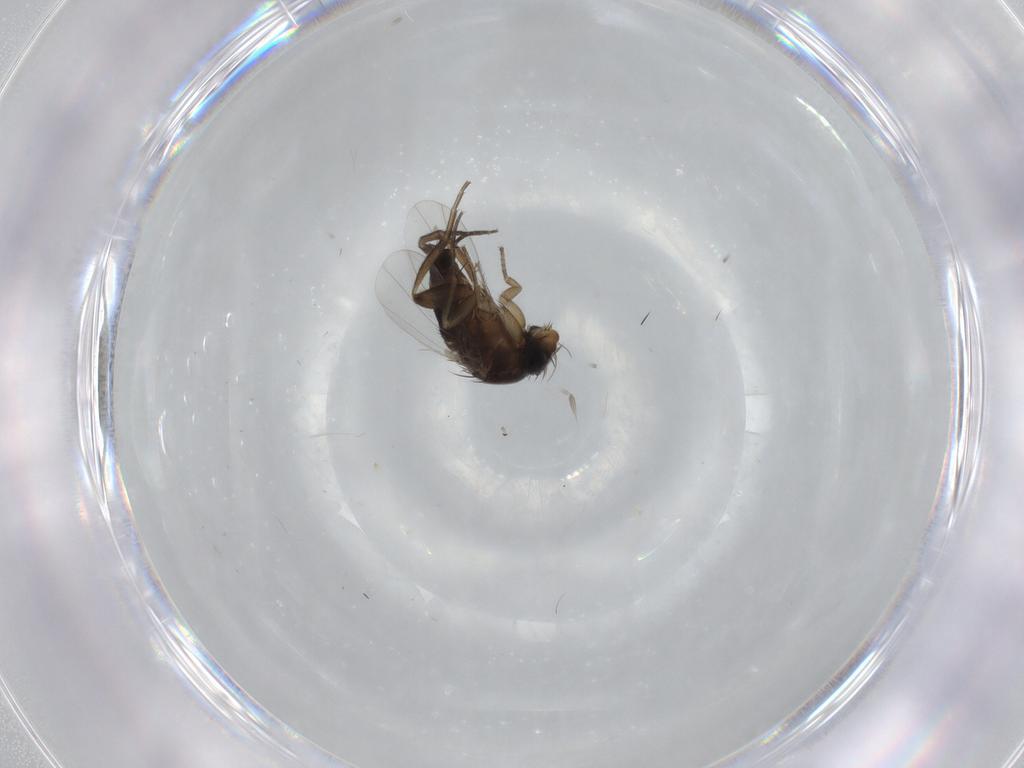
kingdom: Animalia
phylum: Arthropoda
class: Insecta
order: Diptera
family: Phoridae
